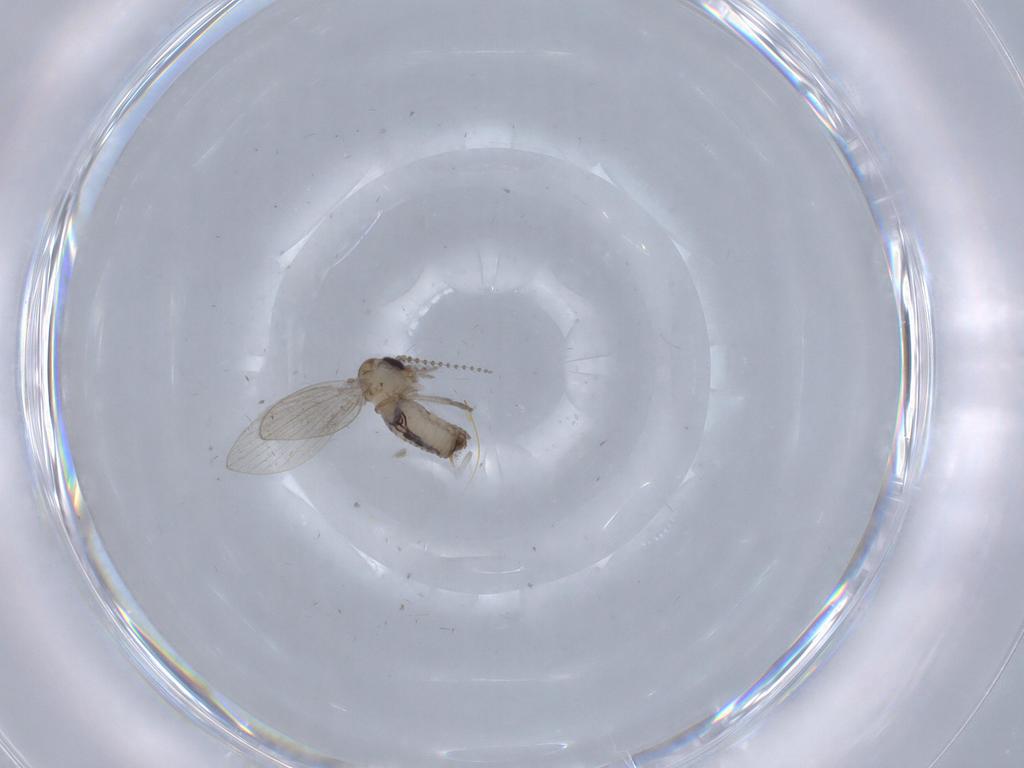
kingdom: Animalia
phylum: Arthropoda
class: Insecta
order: Diptera
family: Psychodidae
